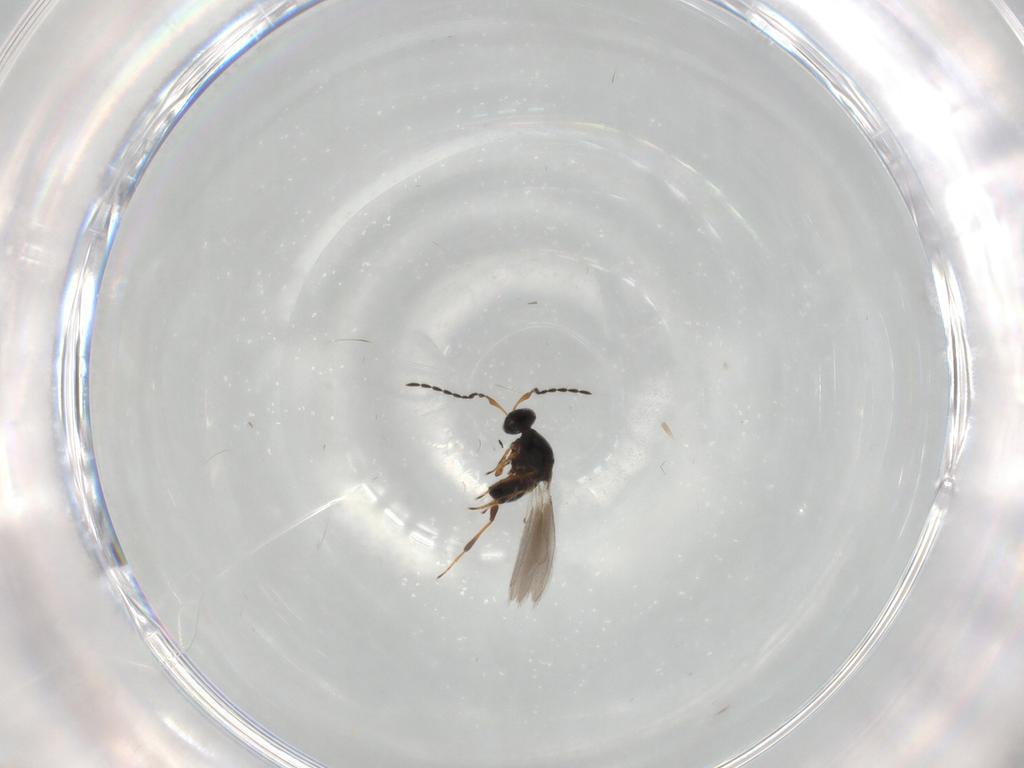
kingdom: Animalia
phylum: Arthropoda
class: Insecta
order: Hymenoptera
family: Platygastridae
